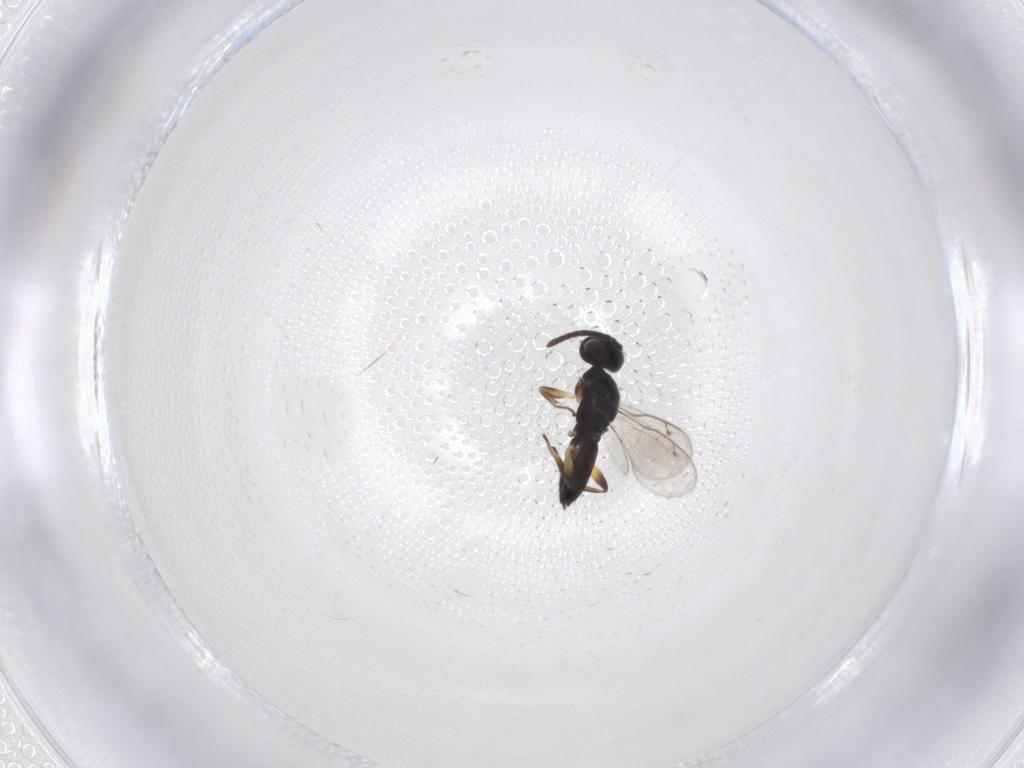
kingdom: Animalia
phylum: Arthropoda
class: Insecta
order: Hymenoptera
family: Eupelmidae
